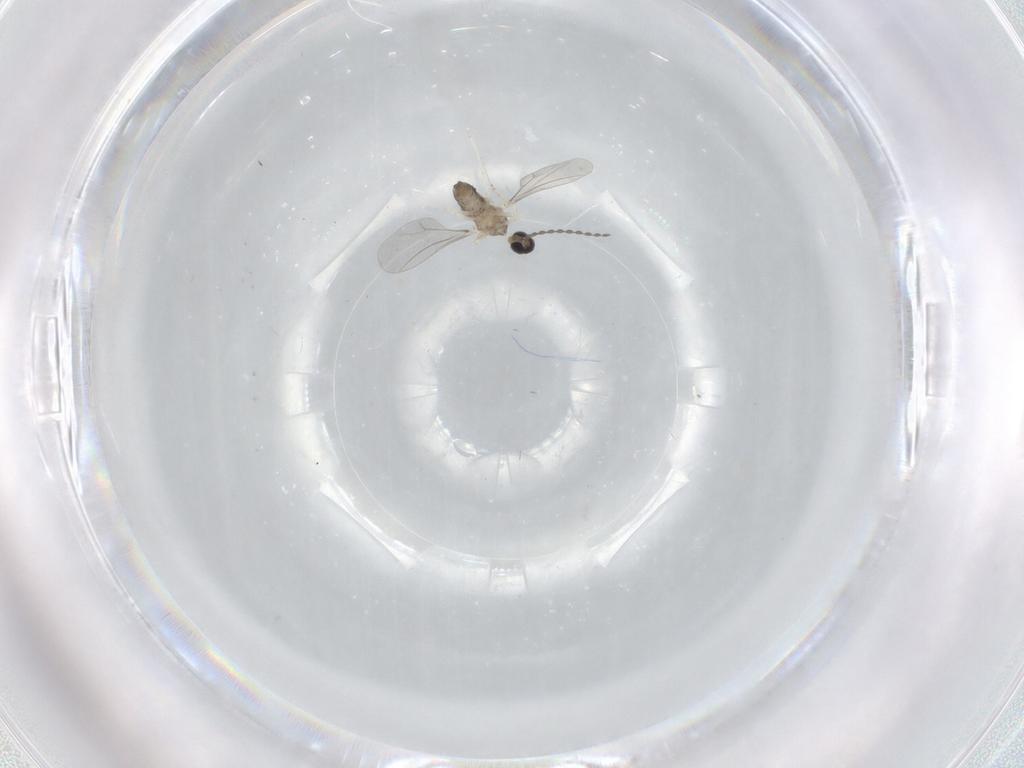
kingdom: Animalia
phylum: Arthropoda
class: Insecta
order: Diptera
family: Cecidomyiidae
